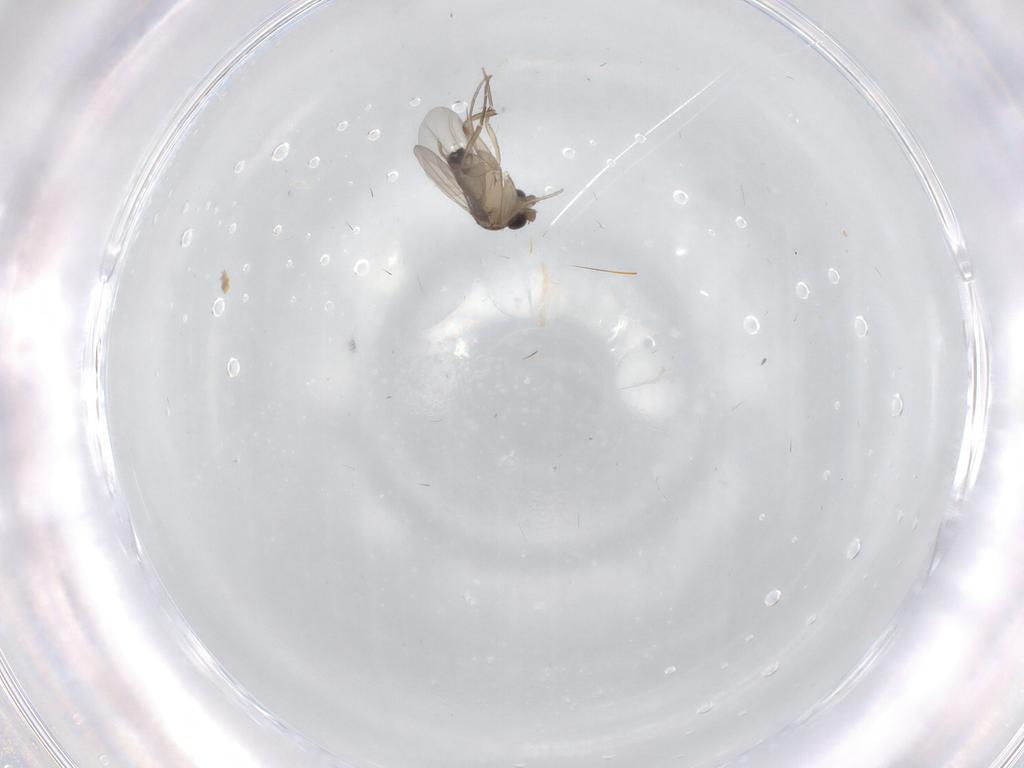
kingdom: Animalia
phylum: Arthropoda
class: Insecta
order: Diptera
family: Phoridae
